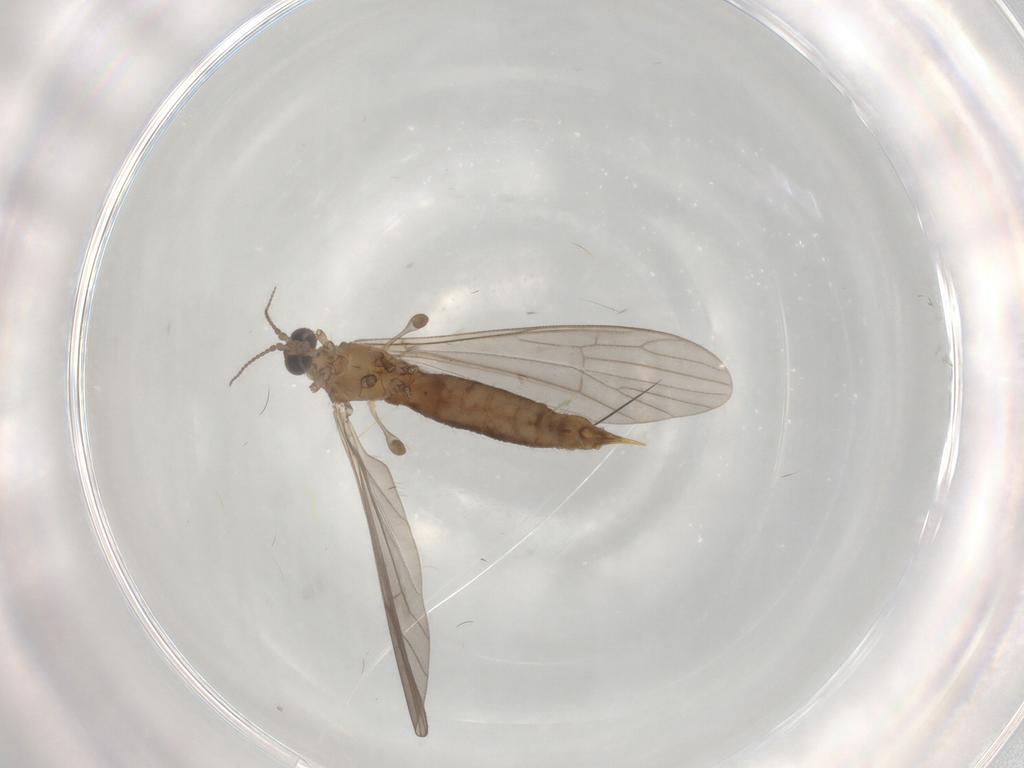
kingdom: Animalia
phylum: Arthropoda
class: Insecta
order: Diptera
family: Limoniidae
